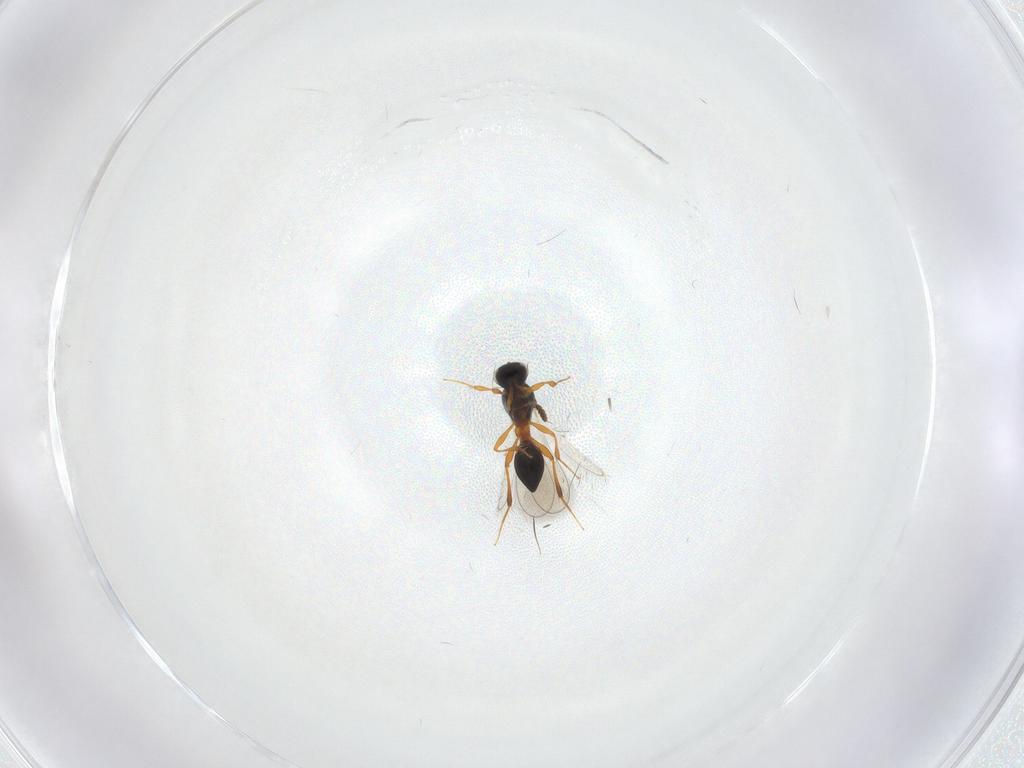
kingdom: Animalia
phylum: Arthropoda
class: Insecta
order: Hymenoptera
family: Platygastridae
